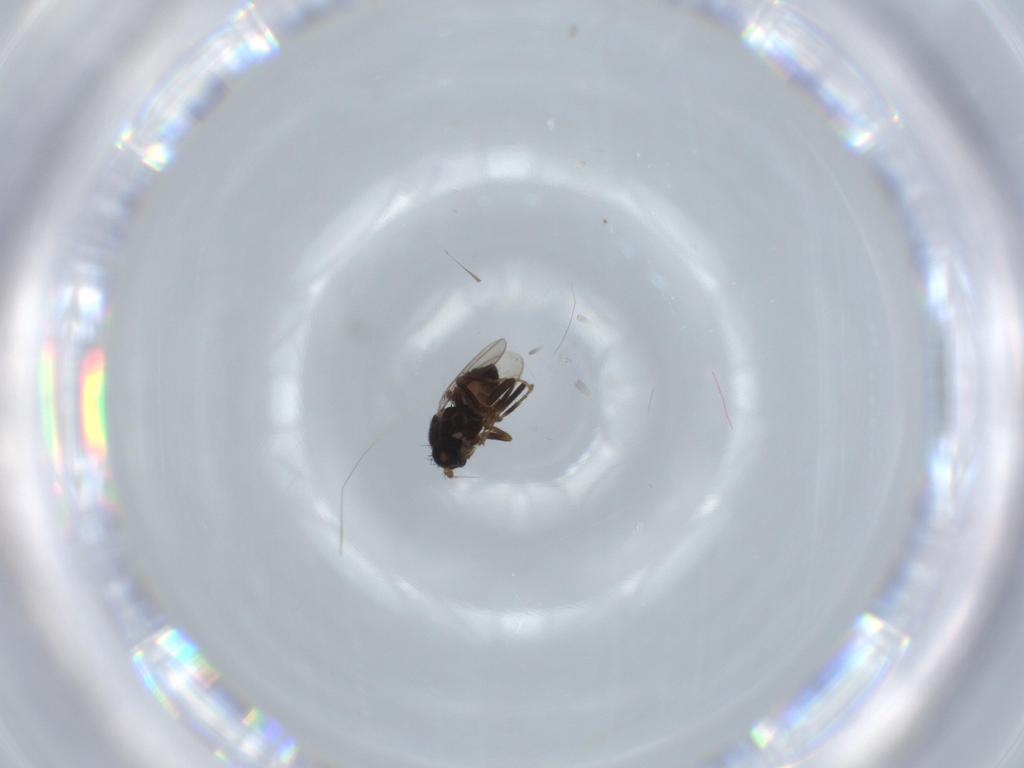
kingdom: Animalia
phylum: Arthropoda
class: Insecta
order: Diptera
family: Sphaeroceridae
